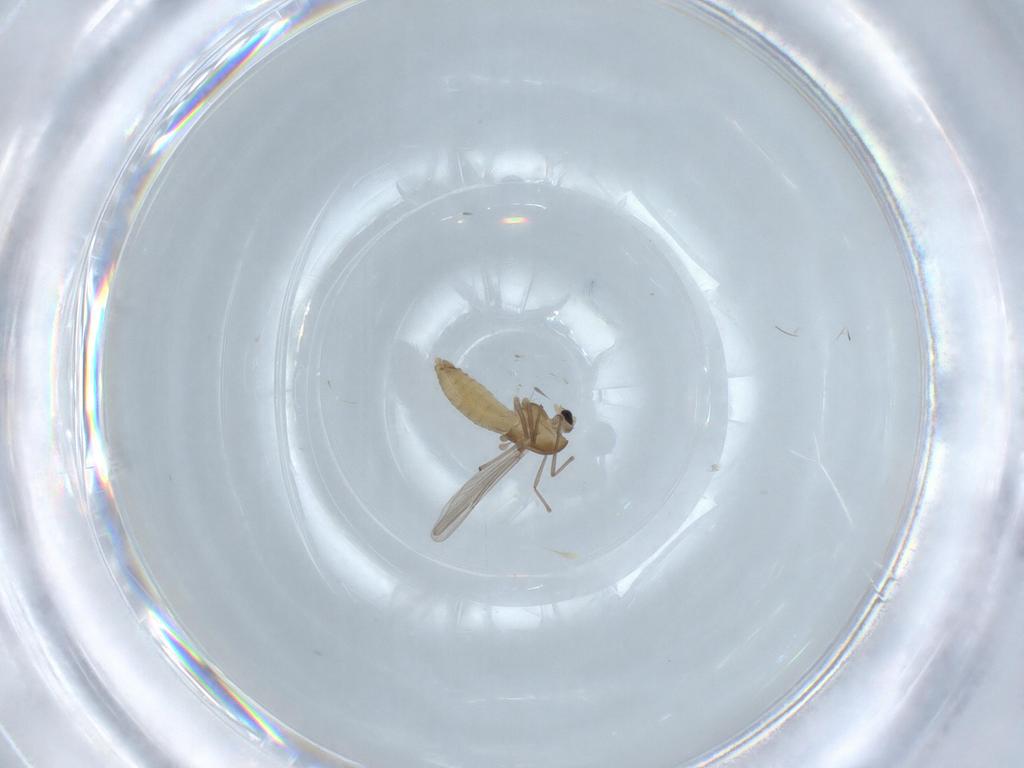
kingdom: Animalia
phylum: Arthropoda
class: Insecta
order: Diptera
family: Chironomidae
